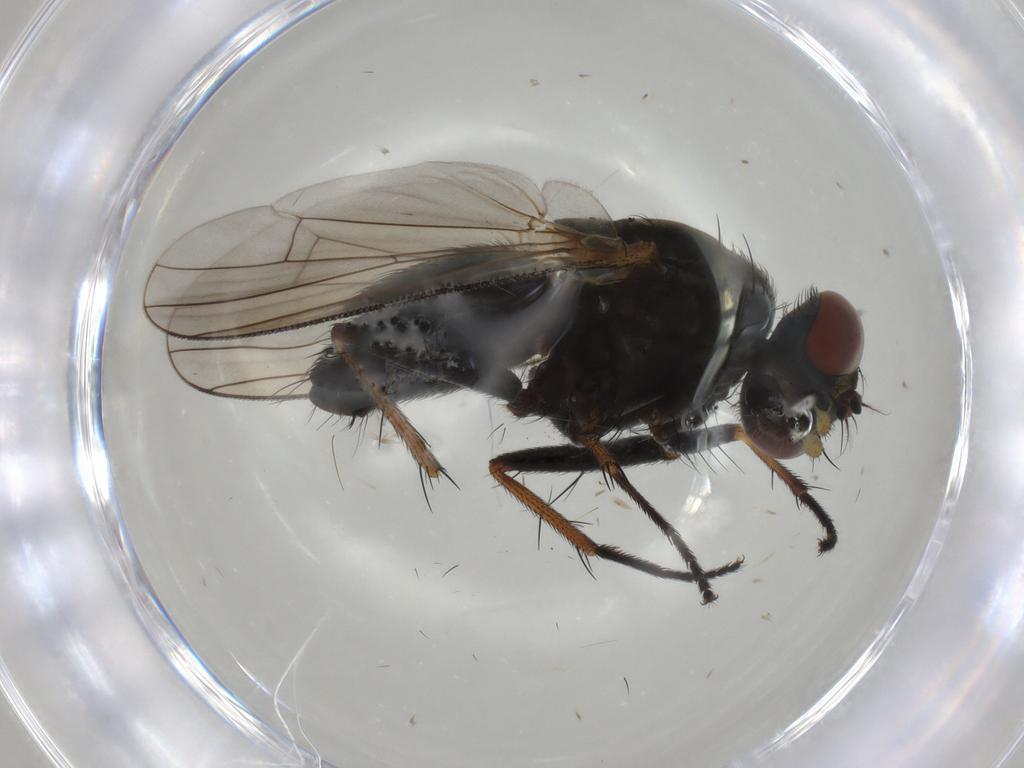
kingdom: Animalia
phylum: Arthropoda
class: Insecta
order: Diptera
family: Muscidae
